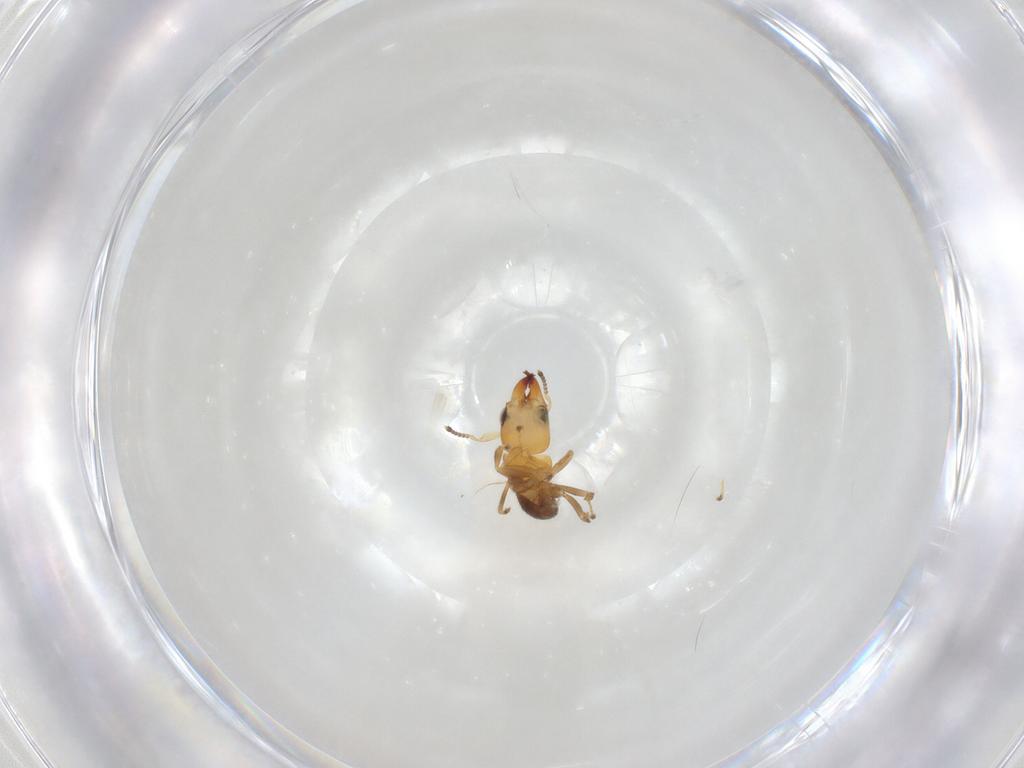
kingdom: Animalia
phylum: Arthropoda
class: Insecta
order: Hymenoptera
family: Pteromalidae
